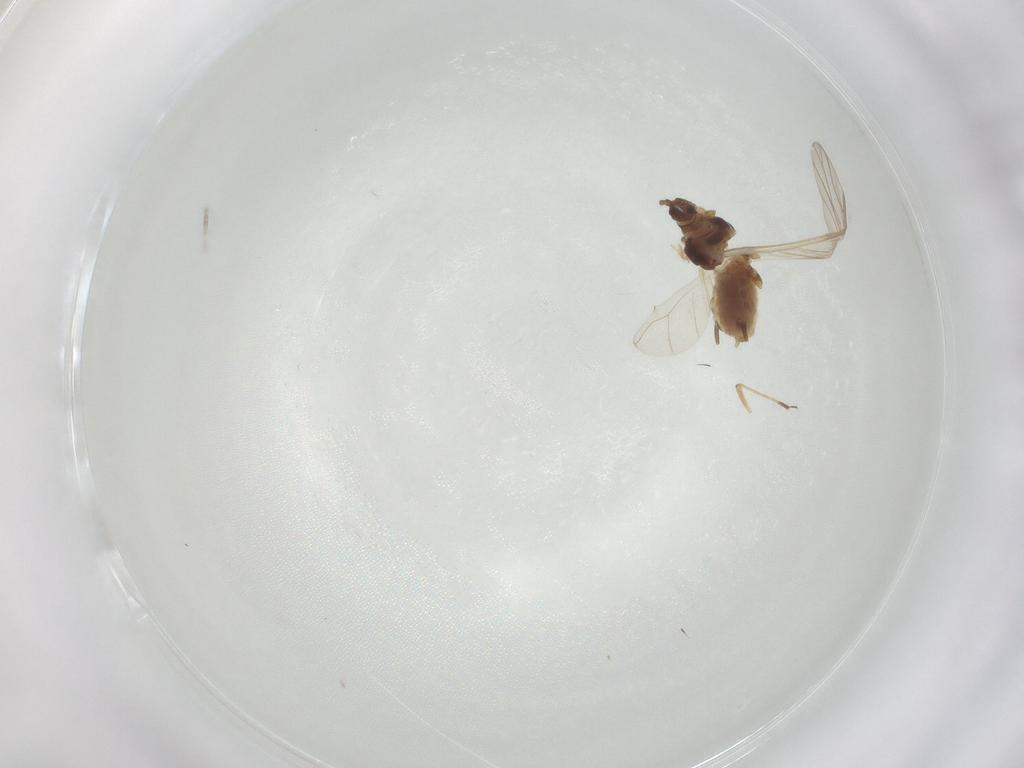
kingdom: Animalia
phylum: Arthropoda
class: Insecta
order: Hemiptera
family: Aphididae
